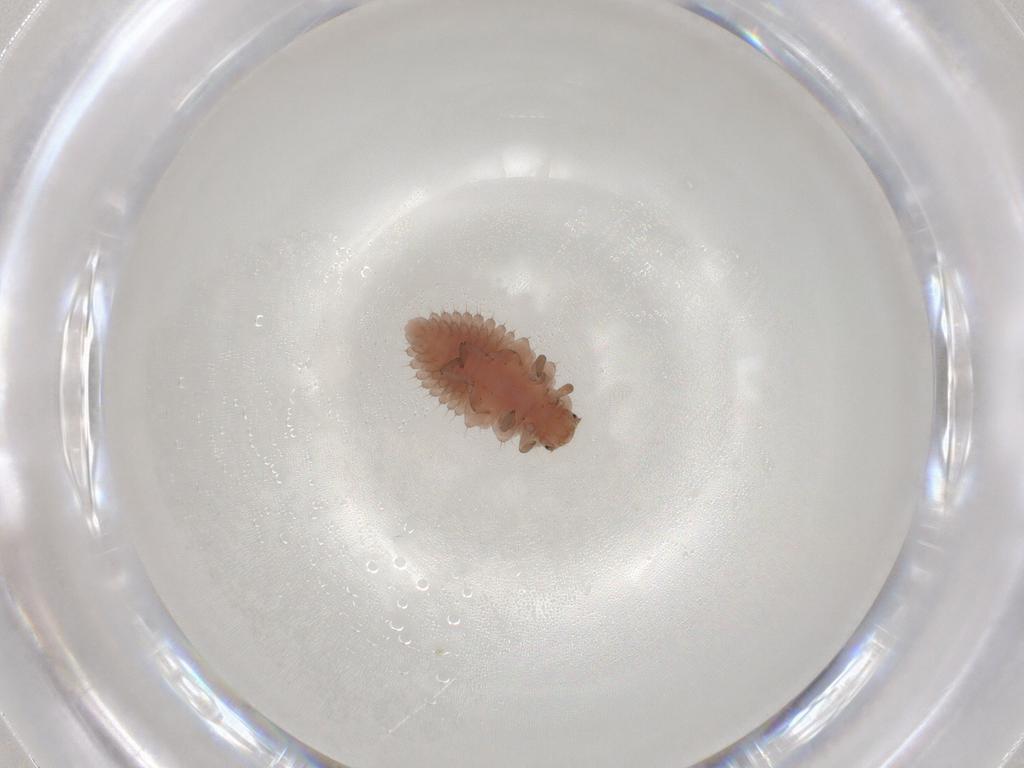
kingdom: Animalia
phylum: Arthropoda
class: Insecta
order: Coleoptera
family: Coccinellidae
